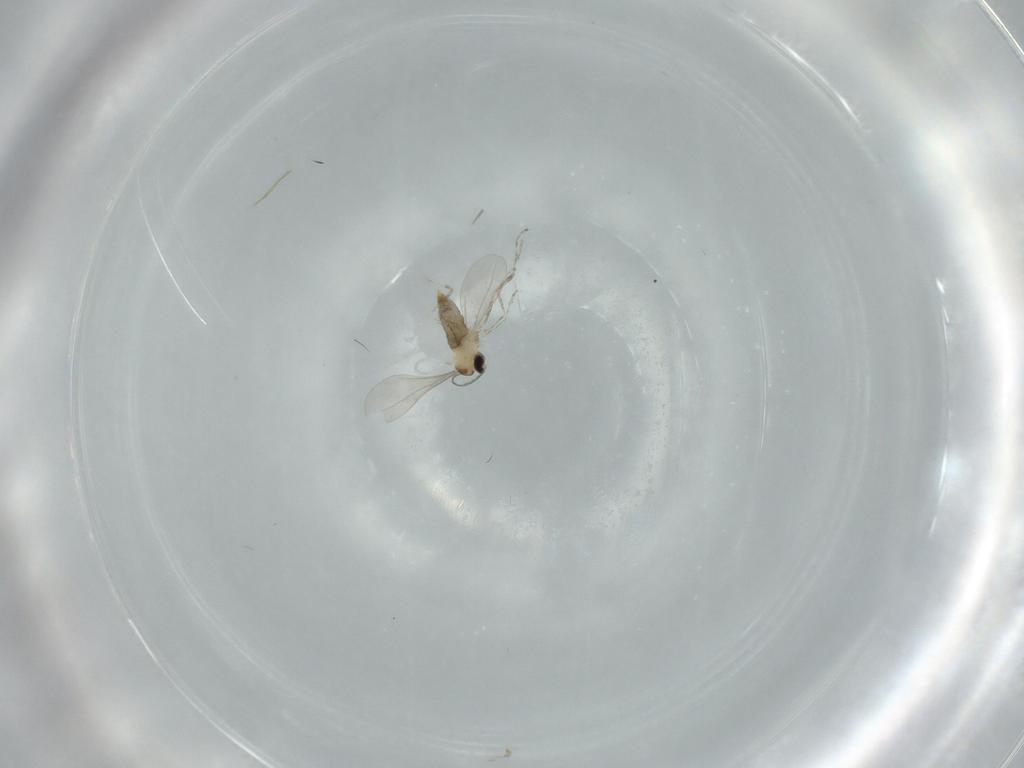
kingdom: Animalia
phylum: Arthropoda
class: Insecta
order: Diptera
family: Cecidomyiidae
